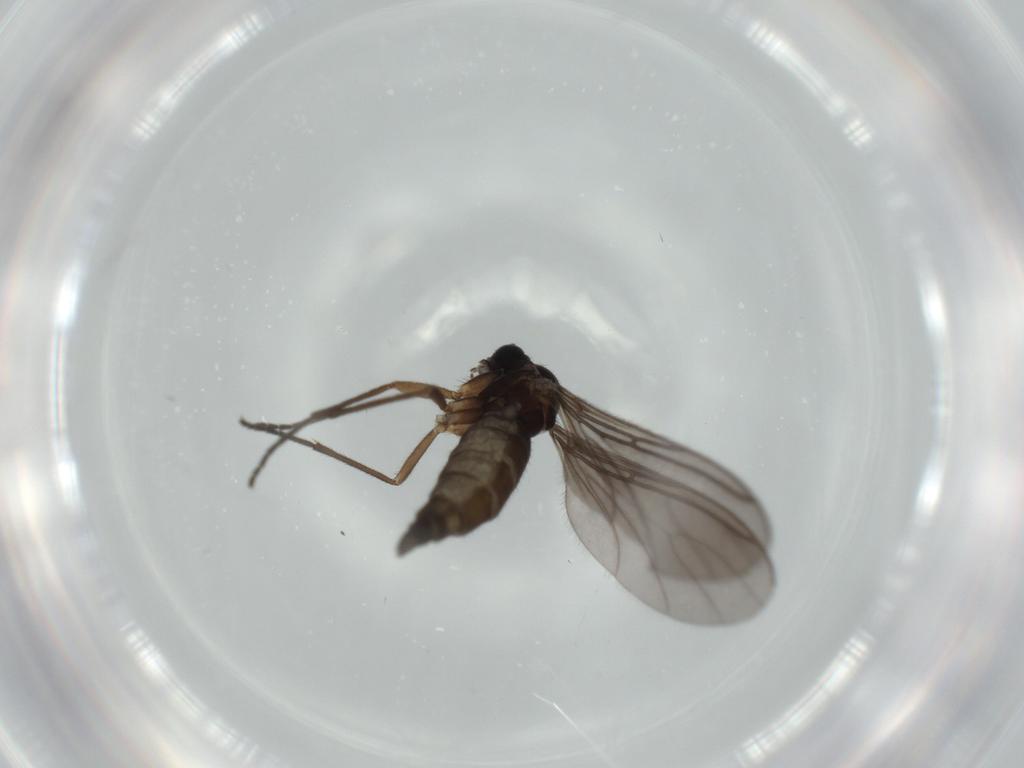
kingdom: Animalia
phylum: Arthropoda
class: Insecta
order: Diptera
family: Sciaridae
